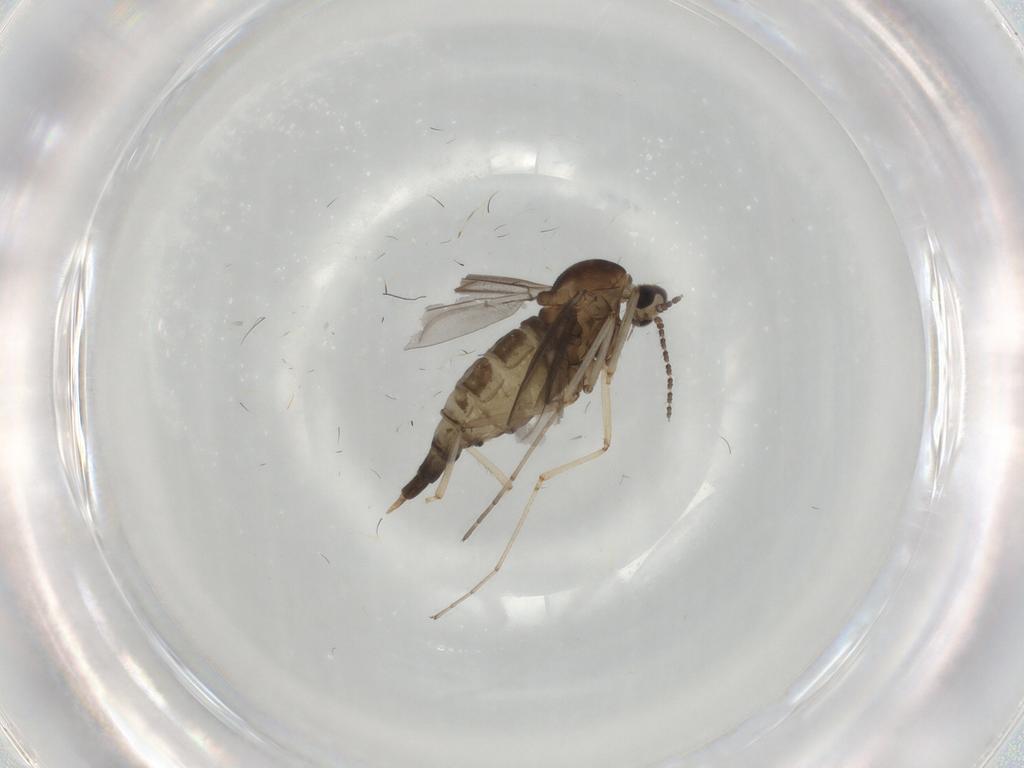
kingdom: Animalia
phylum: Arthropoda
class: Insecta
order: Diptera
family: Cecidomyiidae
